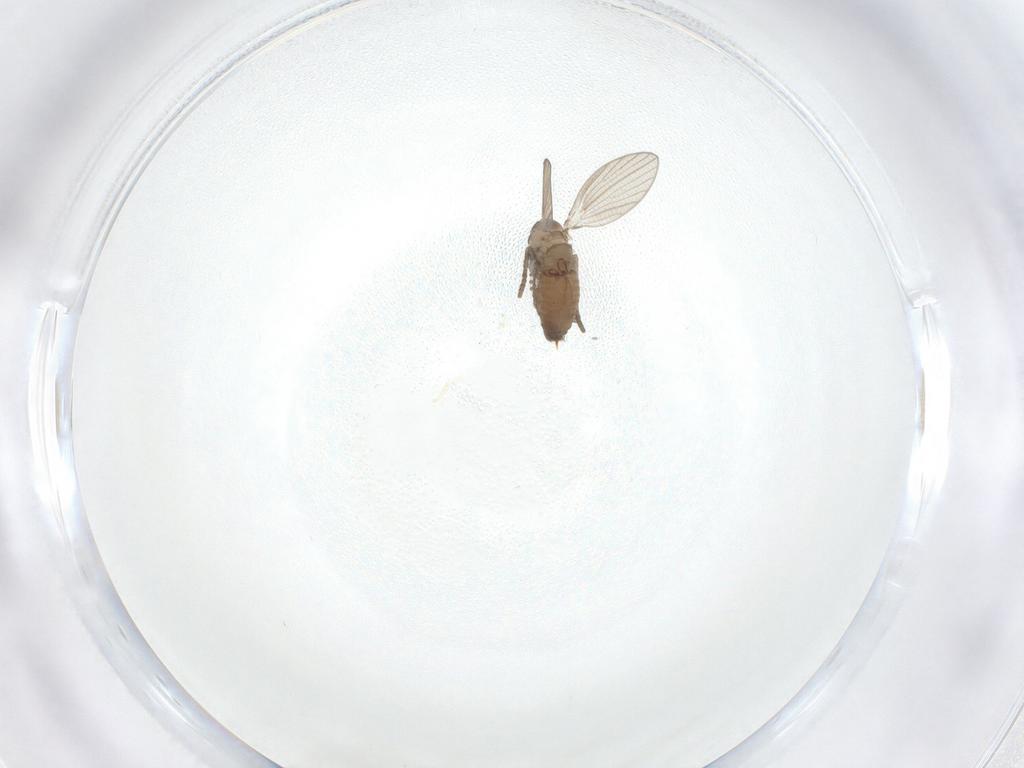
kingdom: Animalia
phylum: Arthropoda
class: Insecta
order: Diptera
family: Psychodidae
